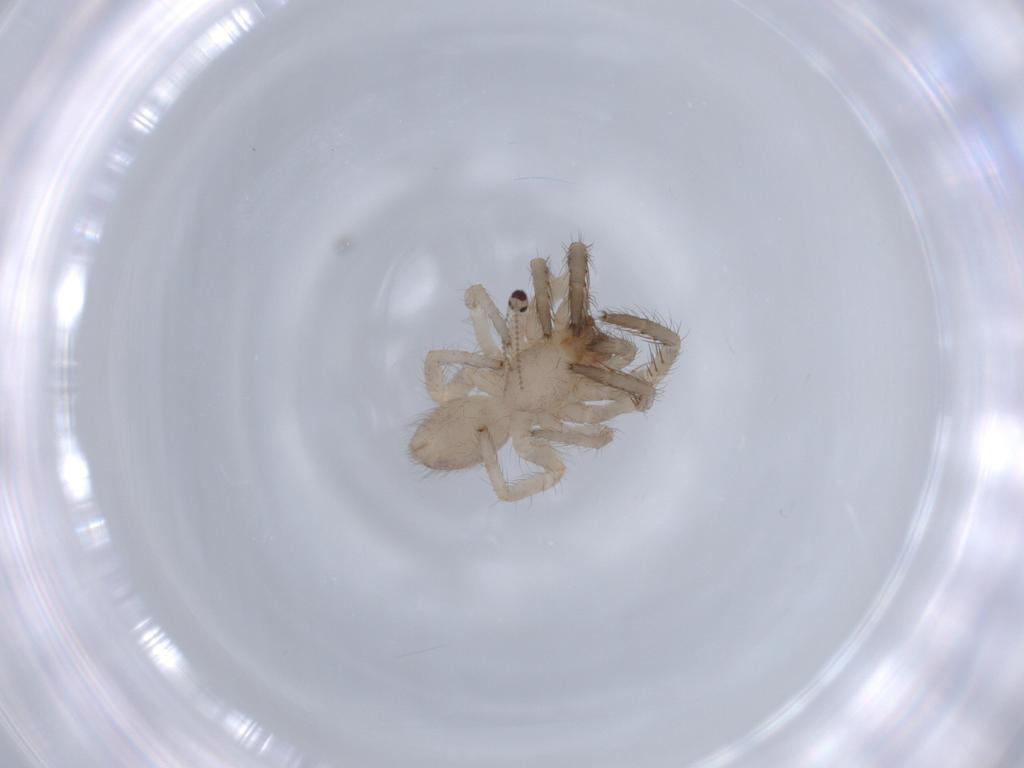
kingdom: Animalia
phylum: Arthropoda
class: Arachnida
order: Araneae
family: Segestriidae
